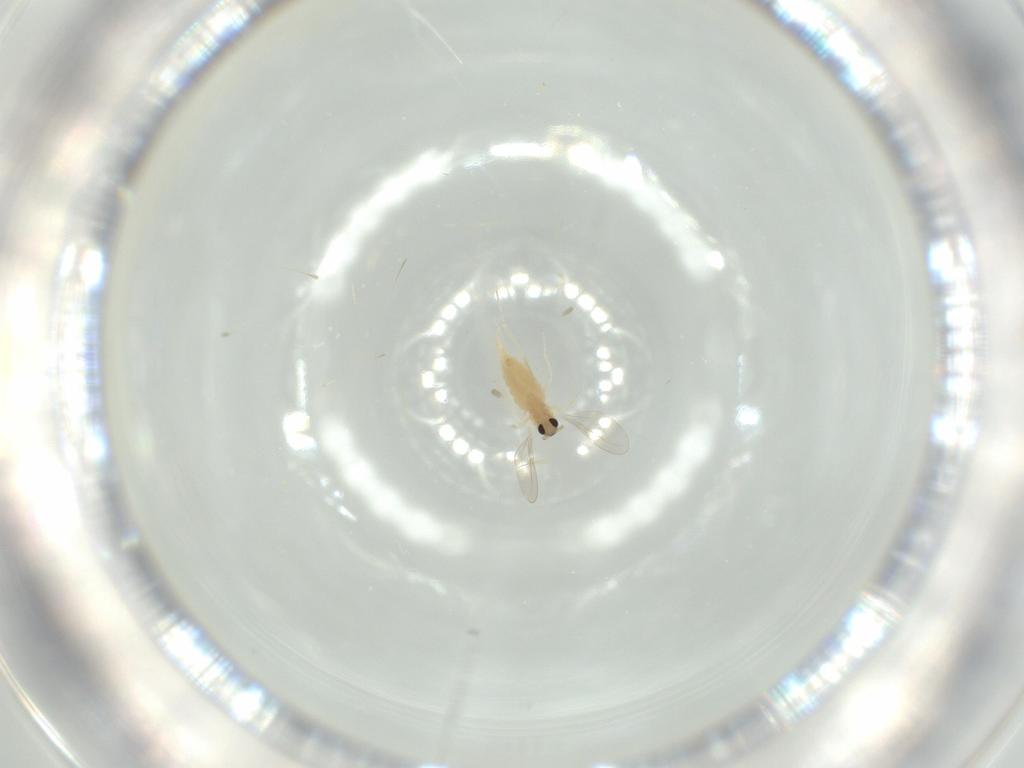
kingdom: Animalia
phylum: Arthropoda
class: Insecta
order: Diptera
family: Cecidomyiidae
